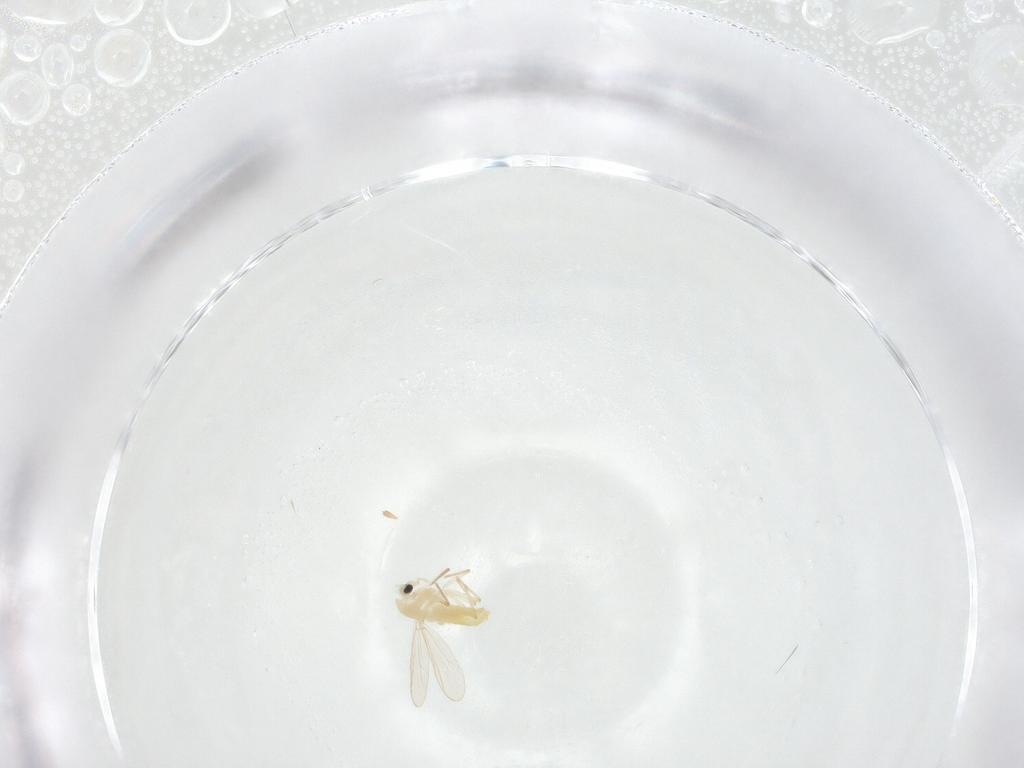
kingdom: Animalia
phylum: Arthropoda
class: Insecta
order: Diptera
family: Chironomidae
